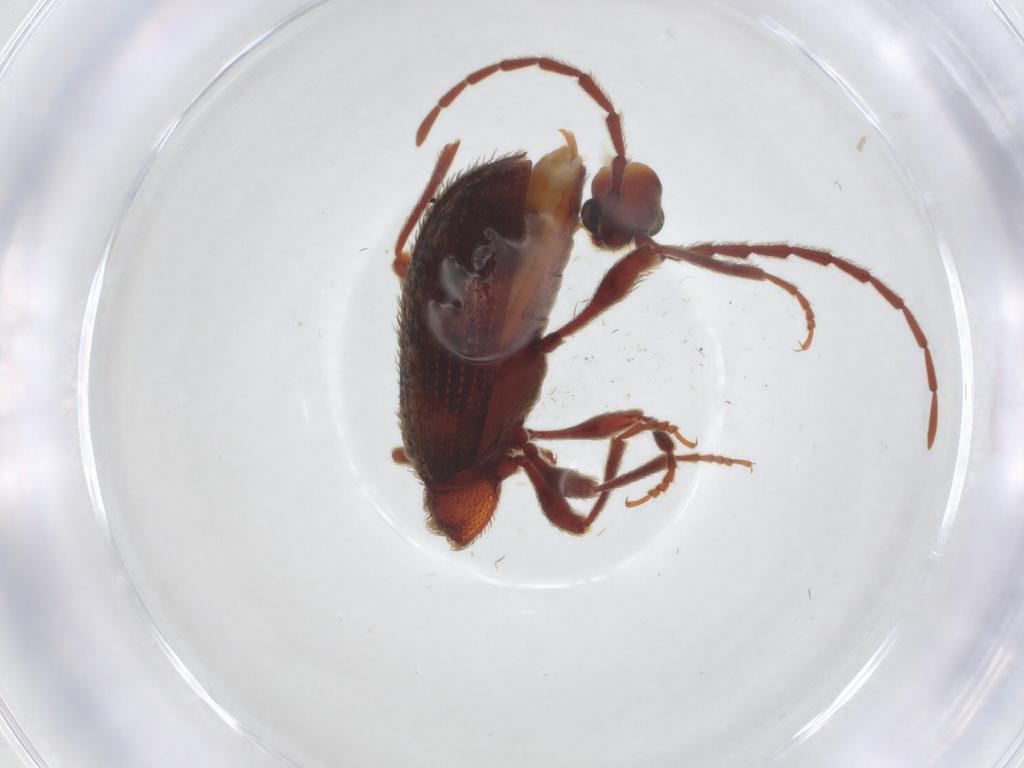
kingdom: Animalia
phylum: Arthropoda
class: Insecta
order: Coleoptera
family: Ptinidae
